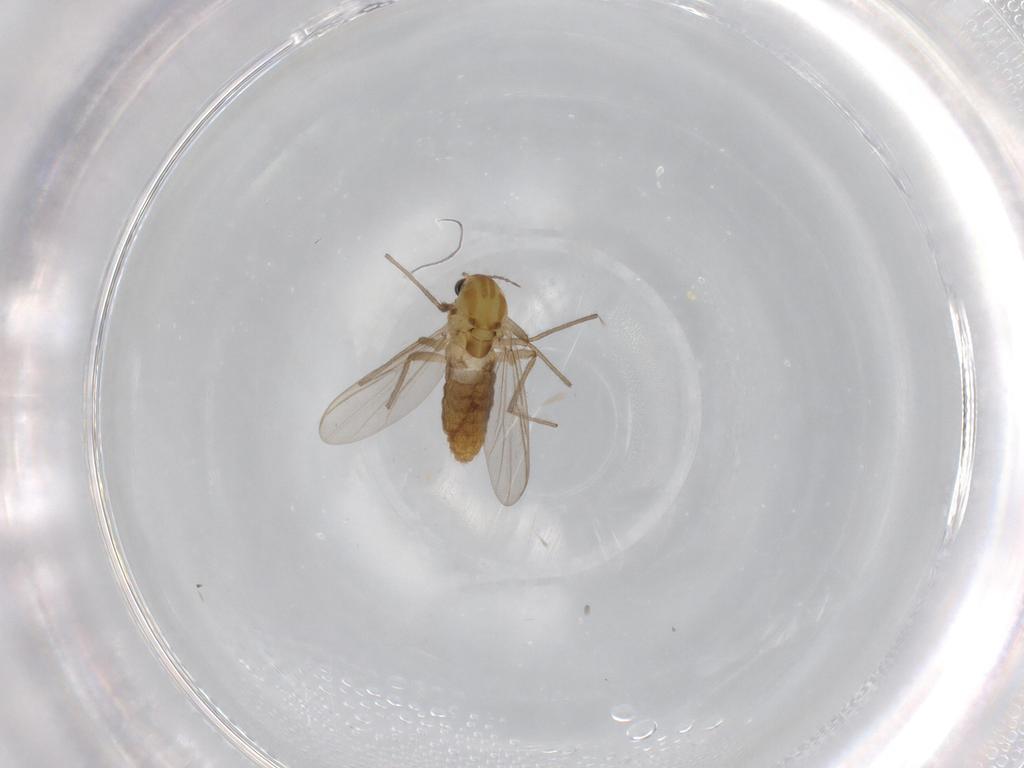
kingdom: Animalia
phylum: Arthropoda
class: Insecta
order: Diptera
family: Chironomidae
